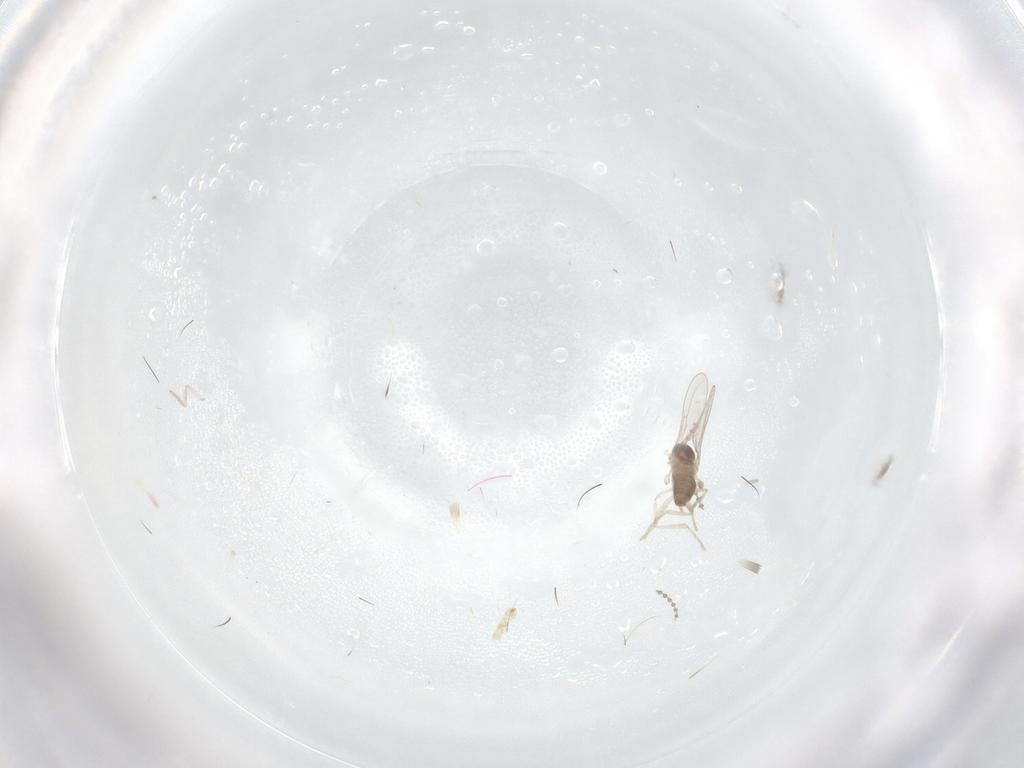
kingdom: Animalia
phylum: Arthropoda
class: Insecta
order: Diptera
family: Cecidomyiidae
